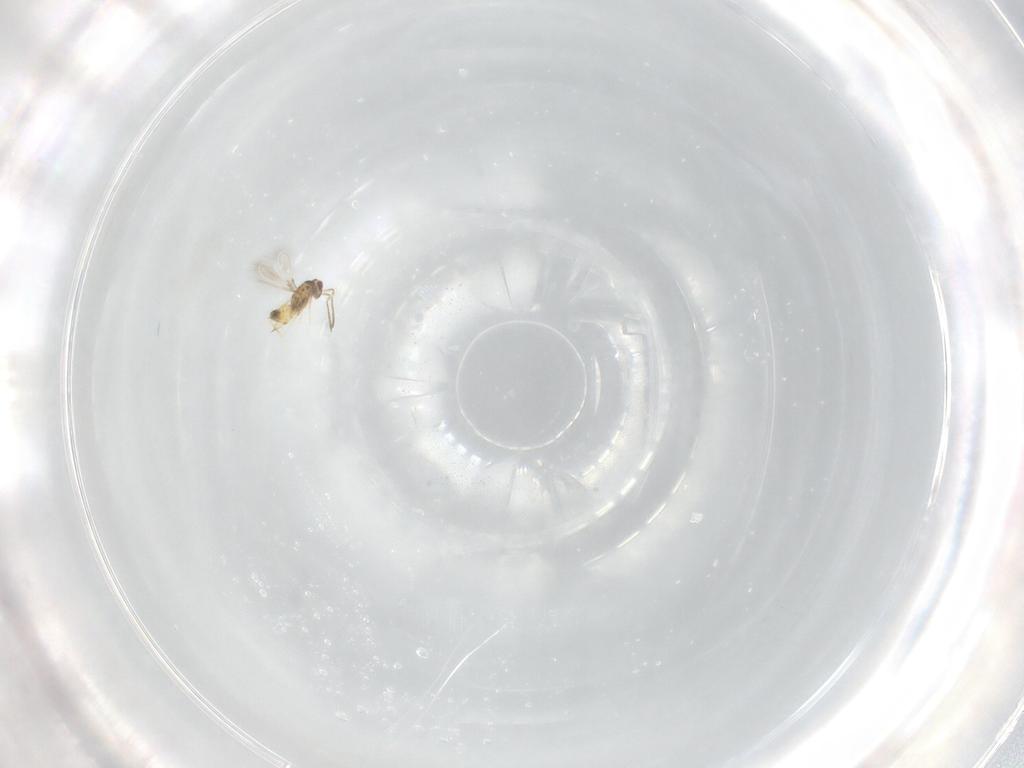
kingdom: Animalia
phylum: Arthropoda
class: Insecta
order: Hymenoptera
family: Mymaridae
